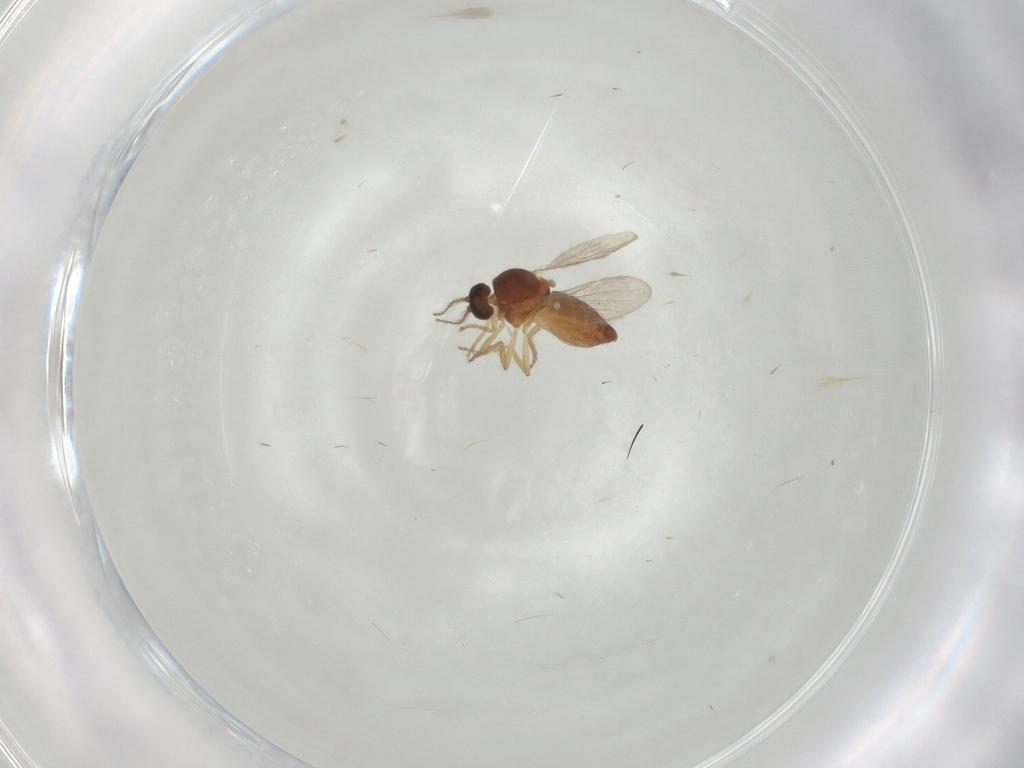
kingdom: Animalia
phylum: Arthropoda
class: Insecta
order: Diptera
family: Ceratopogonidae
